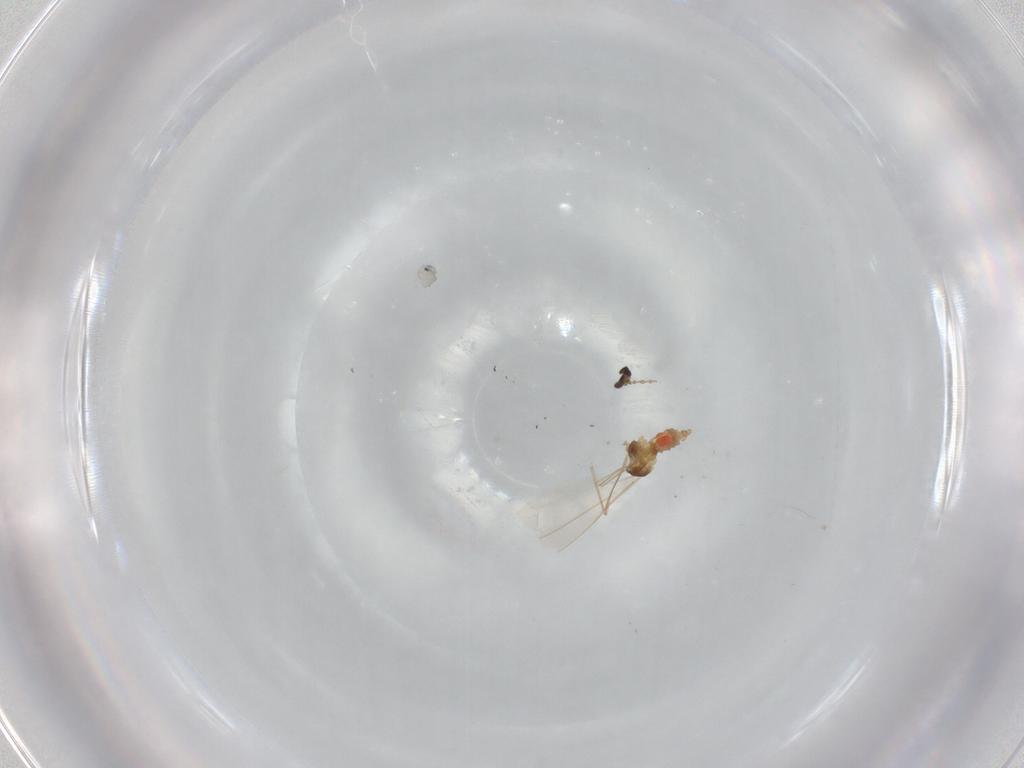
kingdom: Animalia
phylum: Arthropoda
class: Insecta
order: Diptera
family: Cecidomyiidae
